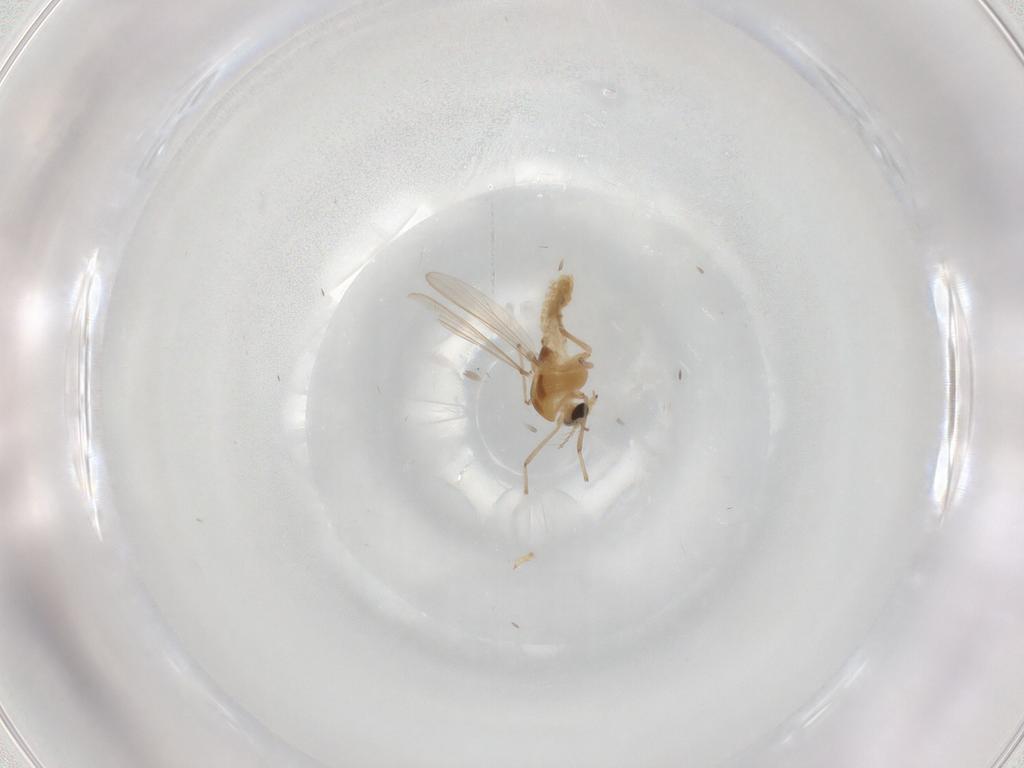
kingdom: Animalia
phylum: Arthropoda
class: Insecta
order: Diptera
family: Chironomidae
